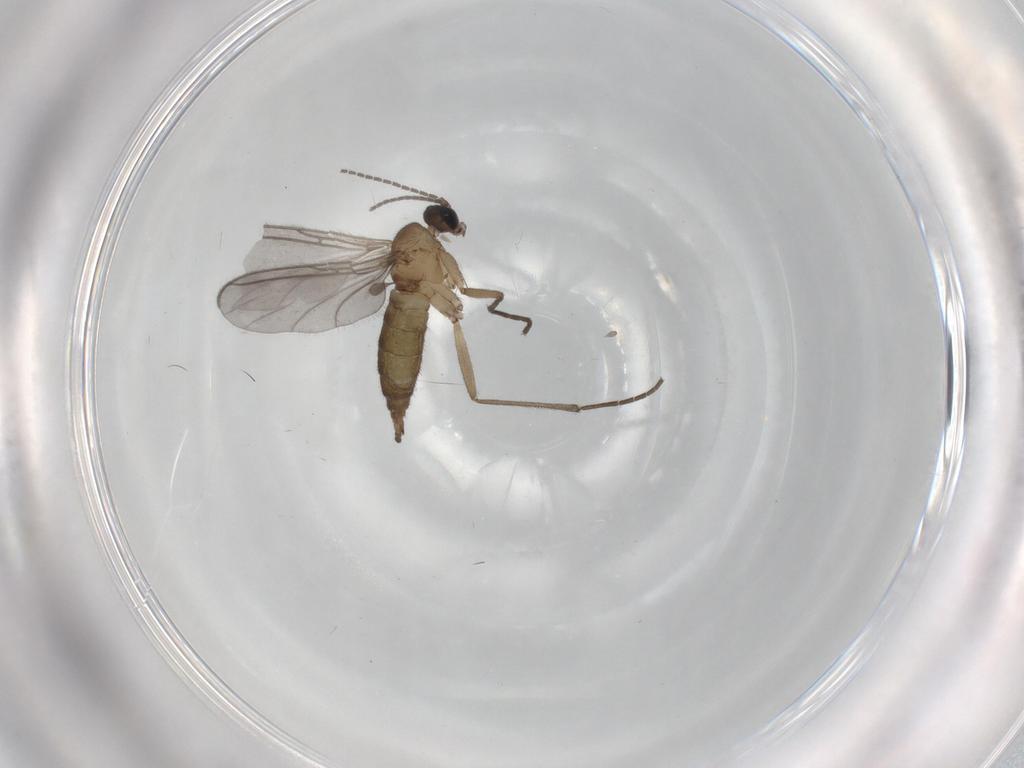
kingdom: Animalia
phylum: Arthropoda
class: Insecta
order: Diptera
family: Sciaridae
